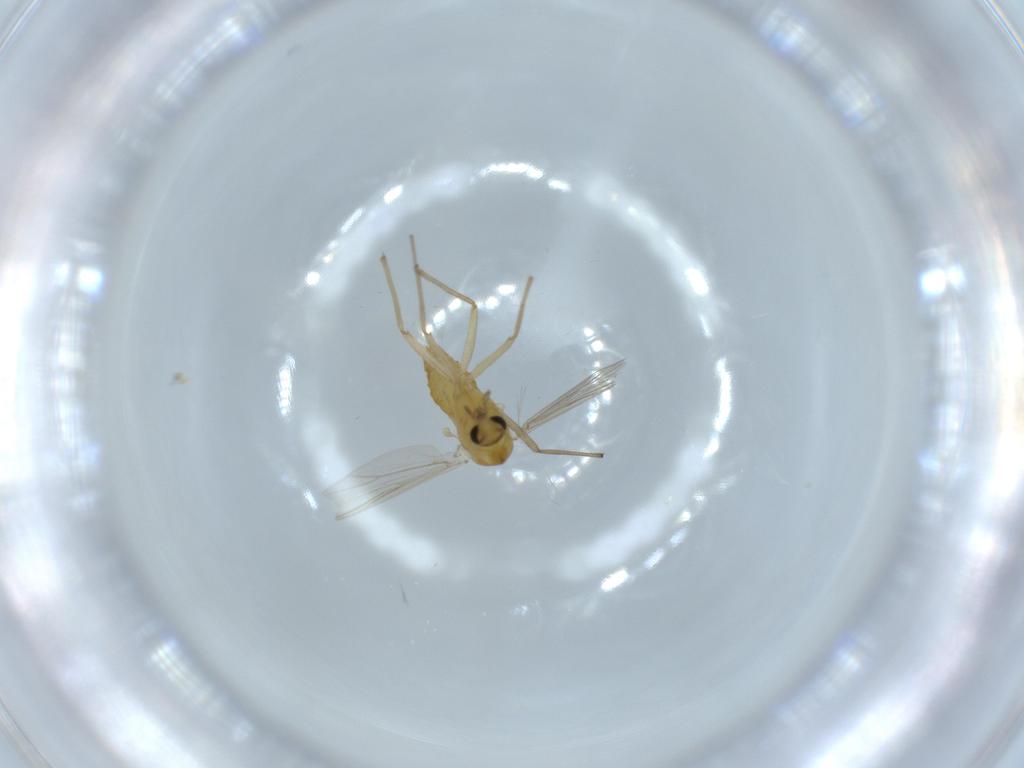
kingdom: Animalia
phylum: Arthropoda
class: Insecta
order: Diptera
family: Chironomidae
